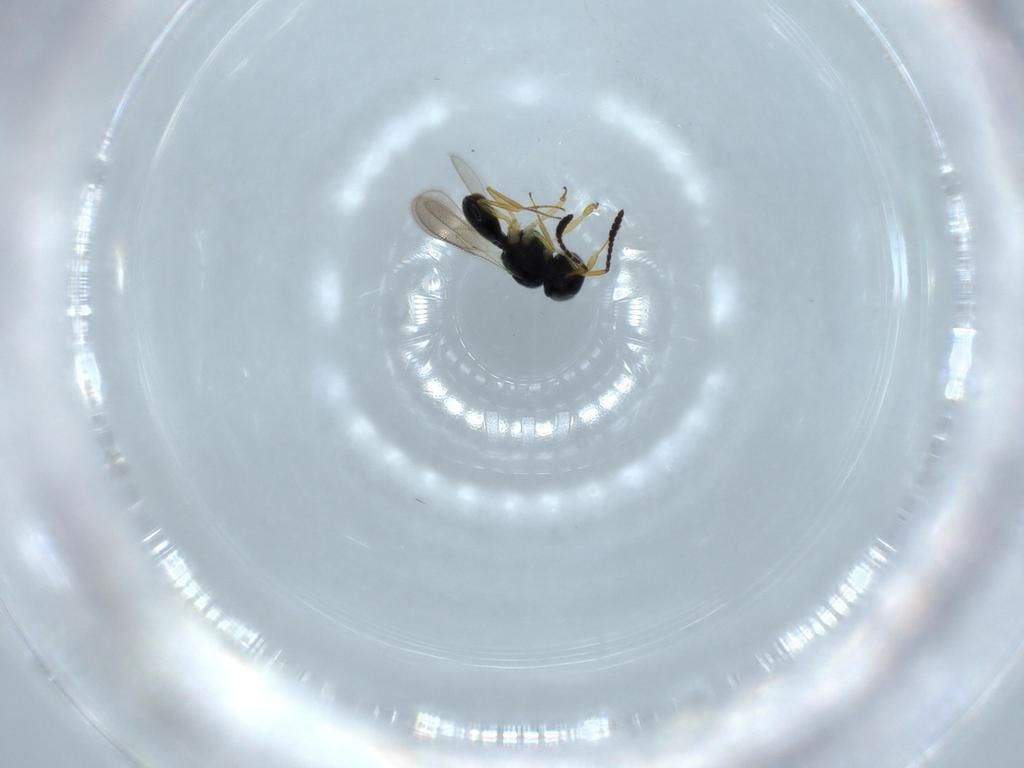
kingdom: Animalia
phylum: Arthropoda
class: Insecta
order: Hymenoptera
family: Scelionidae
